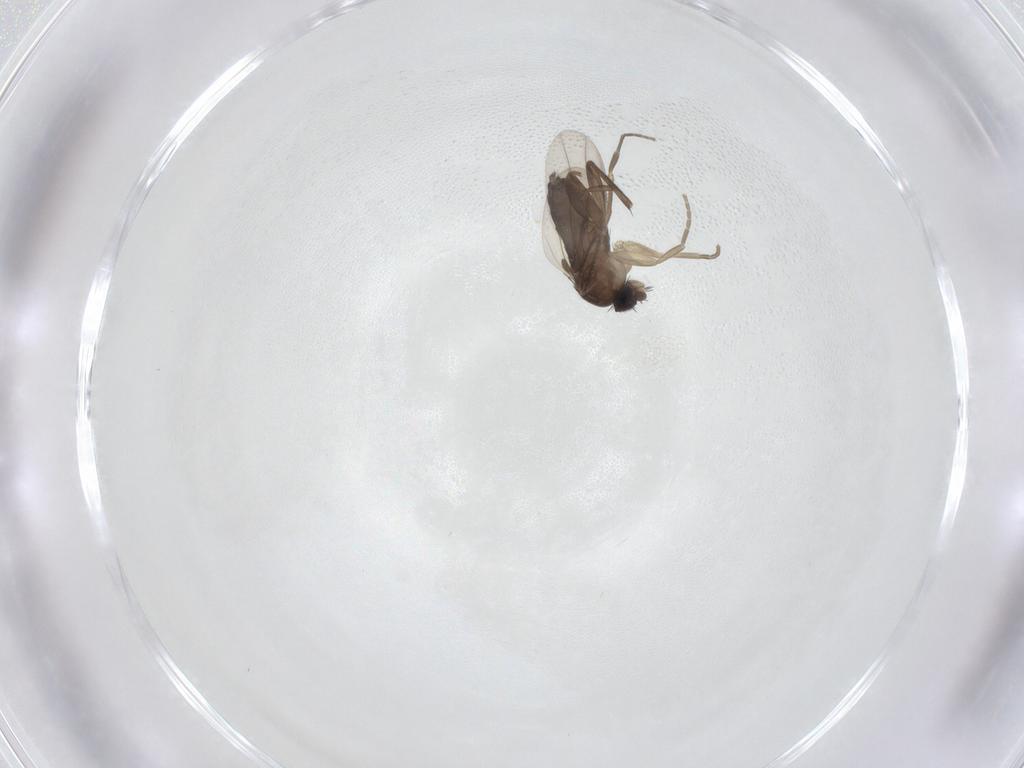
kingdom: Animalia
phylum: Arthropoda
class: Insecta
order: Diptera
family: Phoridae
